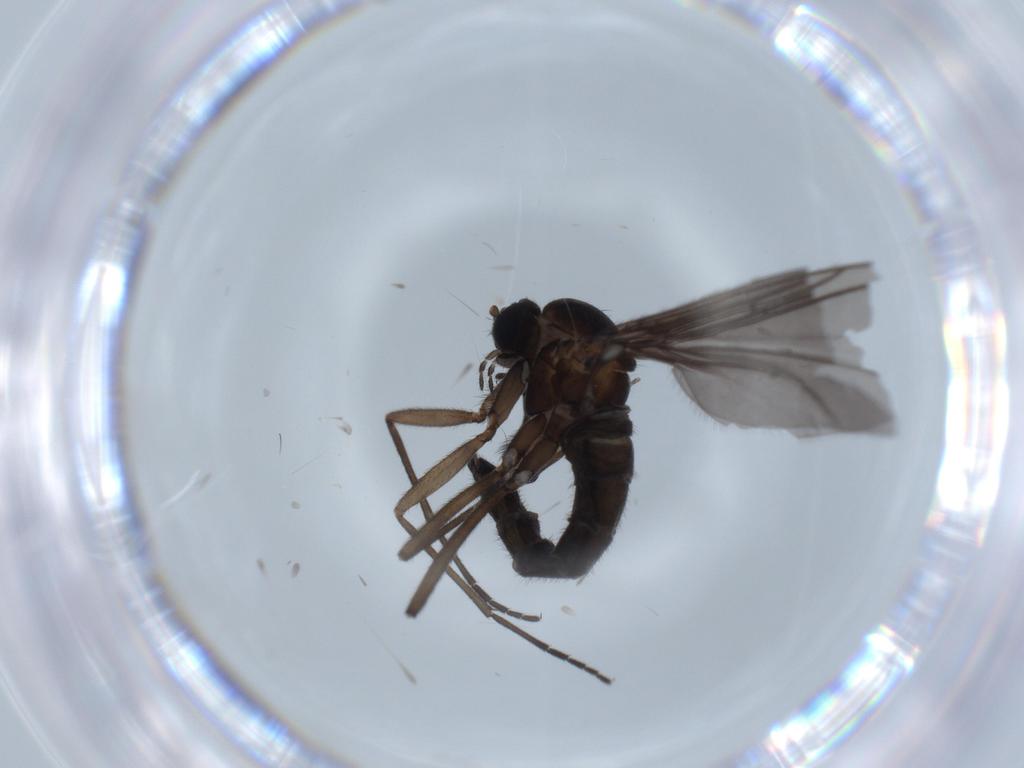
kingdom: Animalia
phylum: Arthropoda
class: Insecta
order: Diptera
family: Sciaridae
